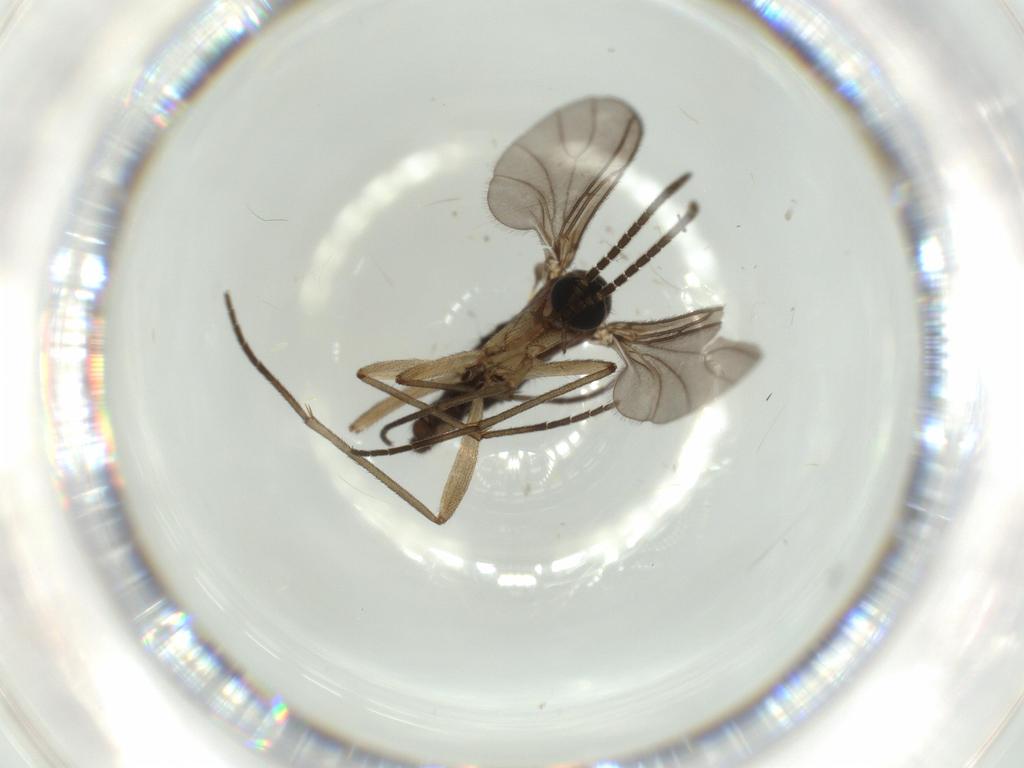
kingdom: Animalia
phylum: Arthropoda
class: Insecta
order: Diptera
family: Sciaridae
